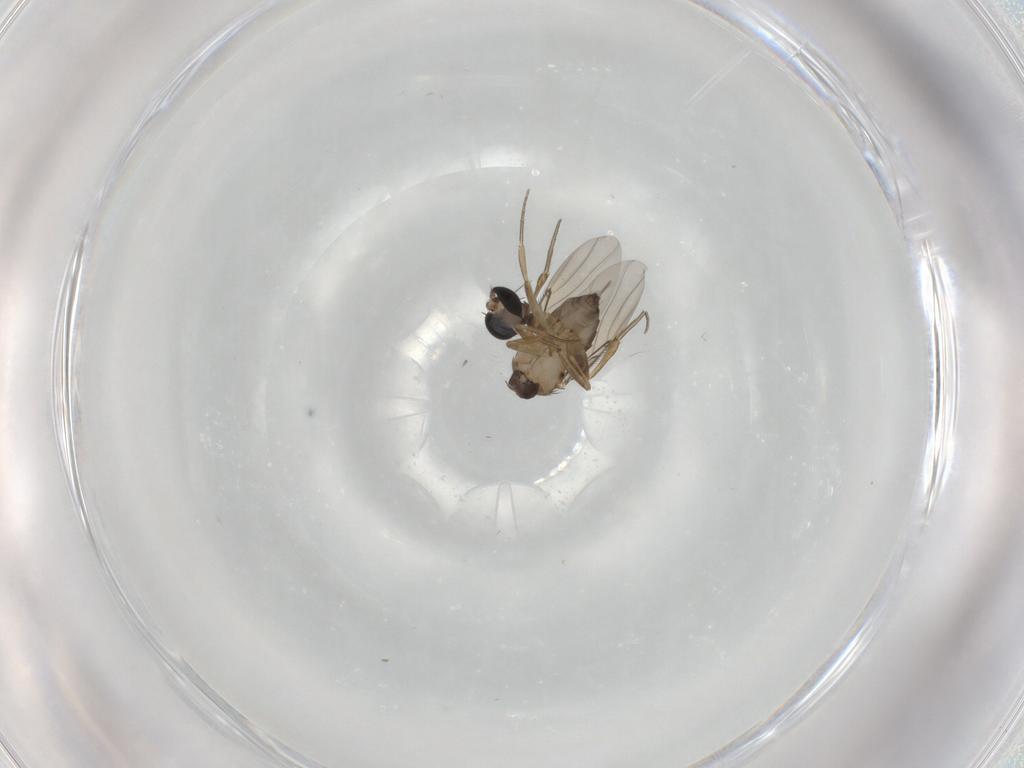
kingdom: Animalia
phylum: Arthropoda
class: Insecta
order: Diptera
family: Phoridae
